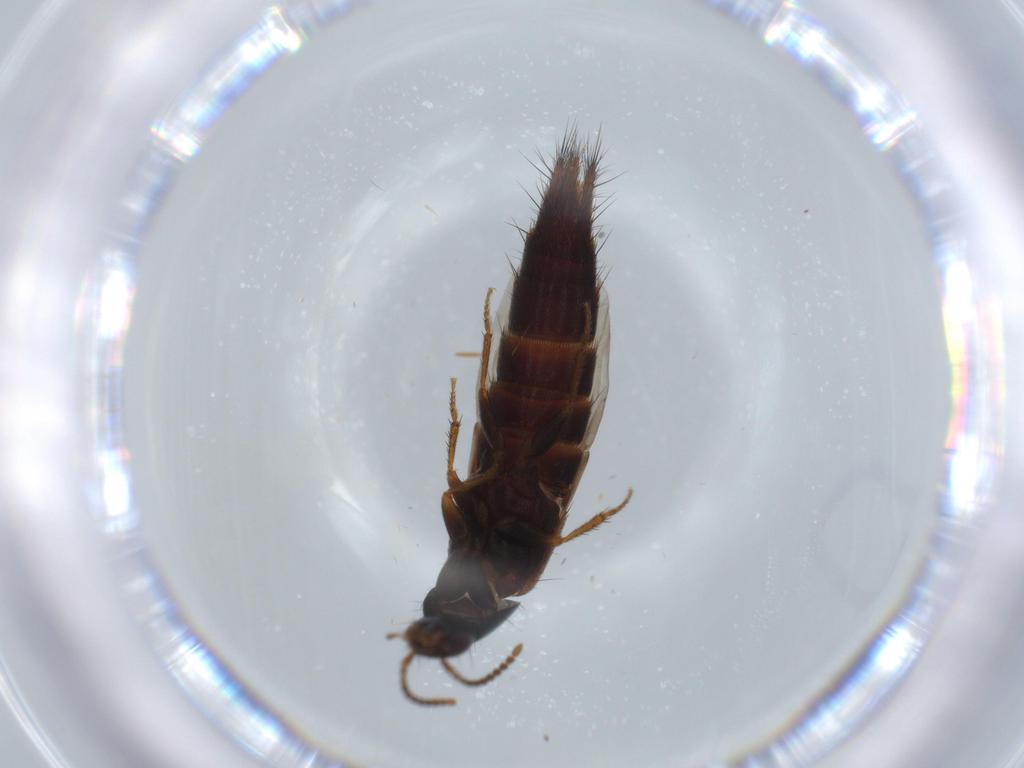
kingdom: Animalia
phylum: Arthropoda
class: Insecta
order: Coleoptera
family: Staphylinidae
